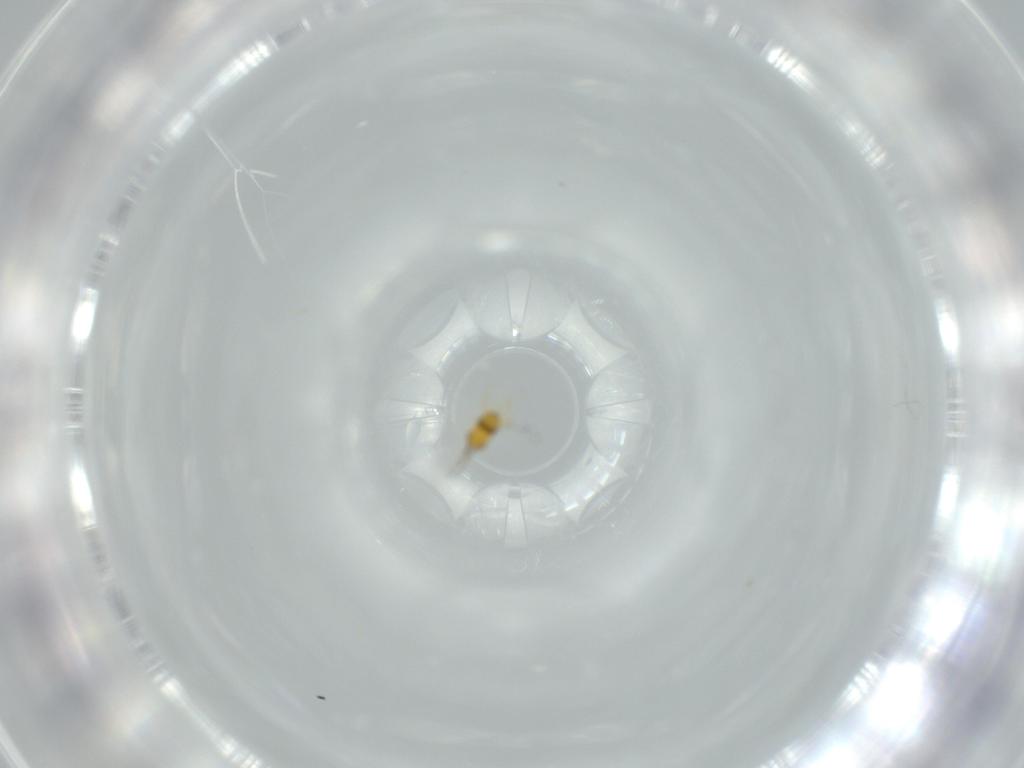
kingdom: Animalia
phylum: Arthropoda
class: Insecta
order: Hymenoptera
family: Trichogrammatidae
